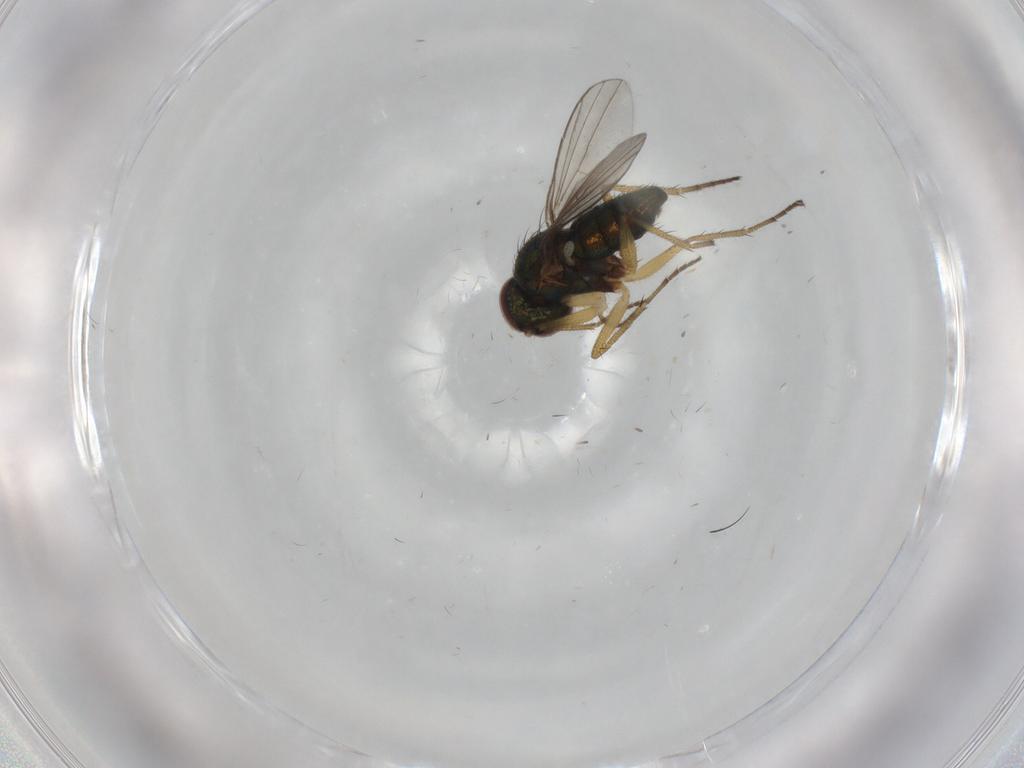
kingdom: Animalia
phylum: Arthropoda
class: Insecta
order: Diptera
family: Dolichopodidae
